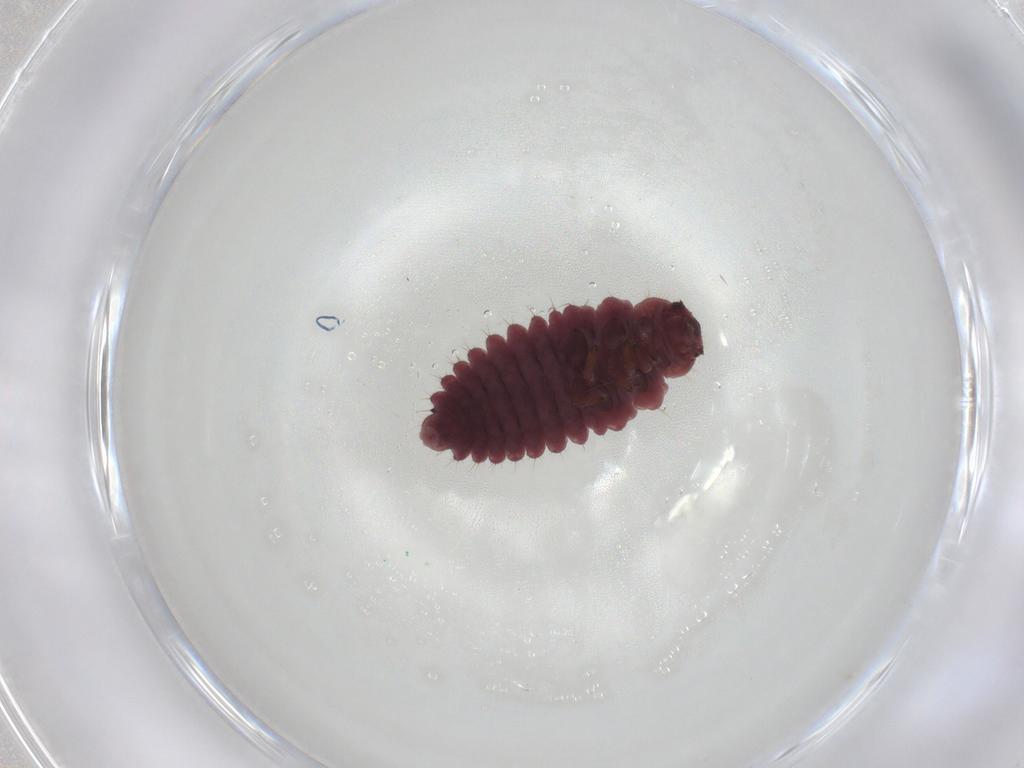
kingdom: Animalia
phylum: Arthropoda
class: Insecta
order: Coleoptera
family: Coccinellidae
